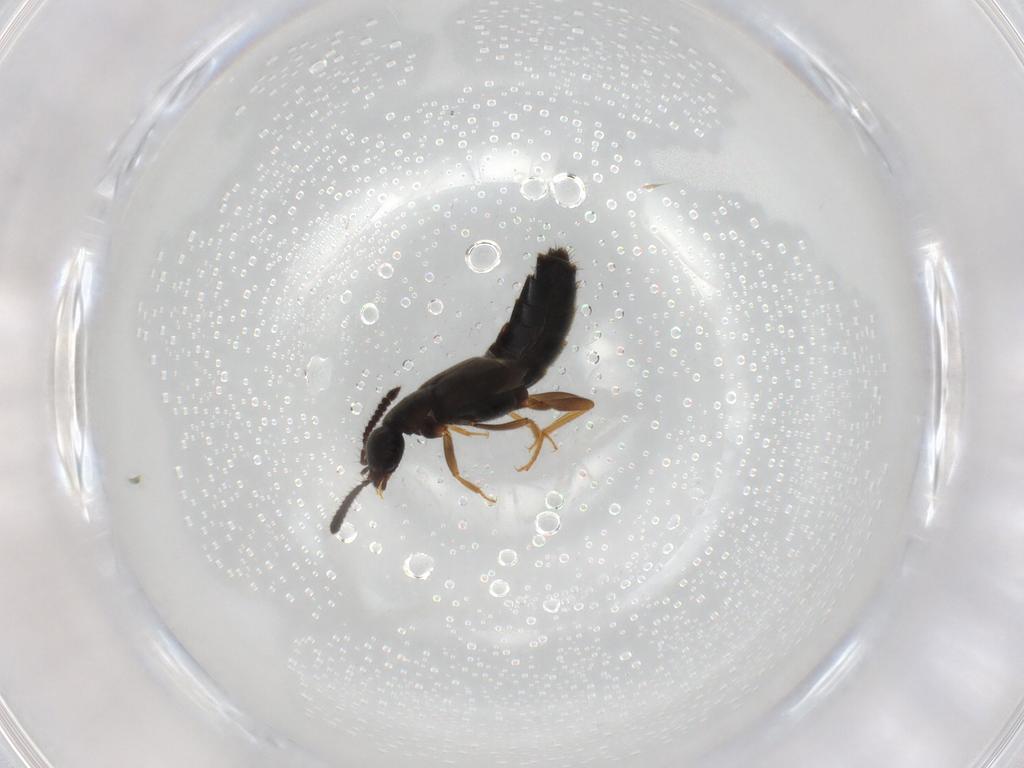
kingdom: Animalia
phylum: Arthropoda
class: Insecta
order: Coleoptera
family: Staphylinidae
